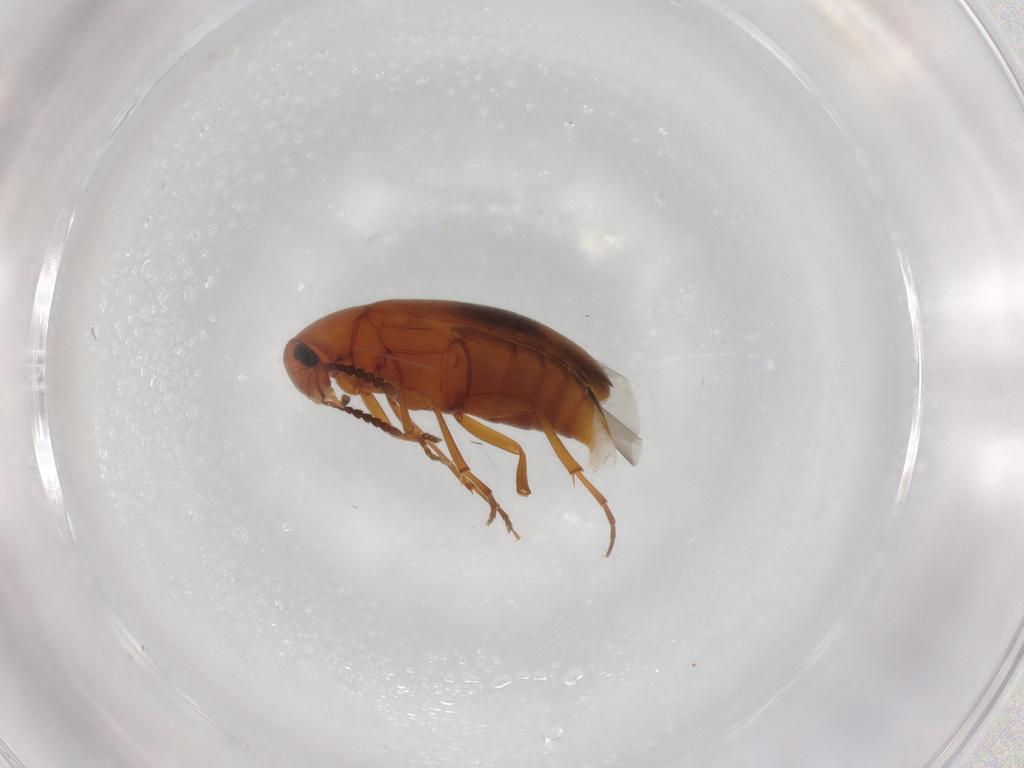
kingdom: Animalia
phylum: Arthropoda
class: Insecta
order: Coleoptera
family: Scraptiidae
